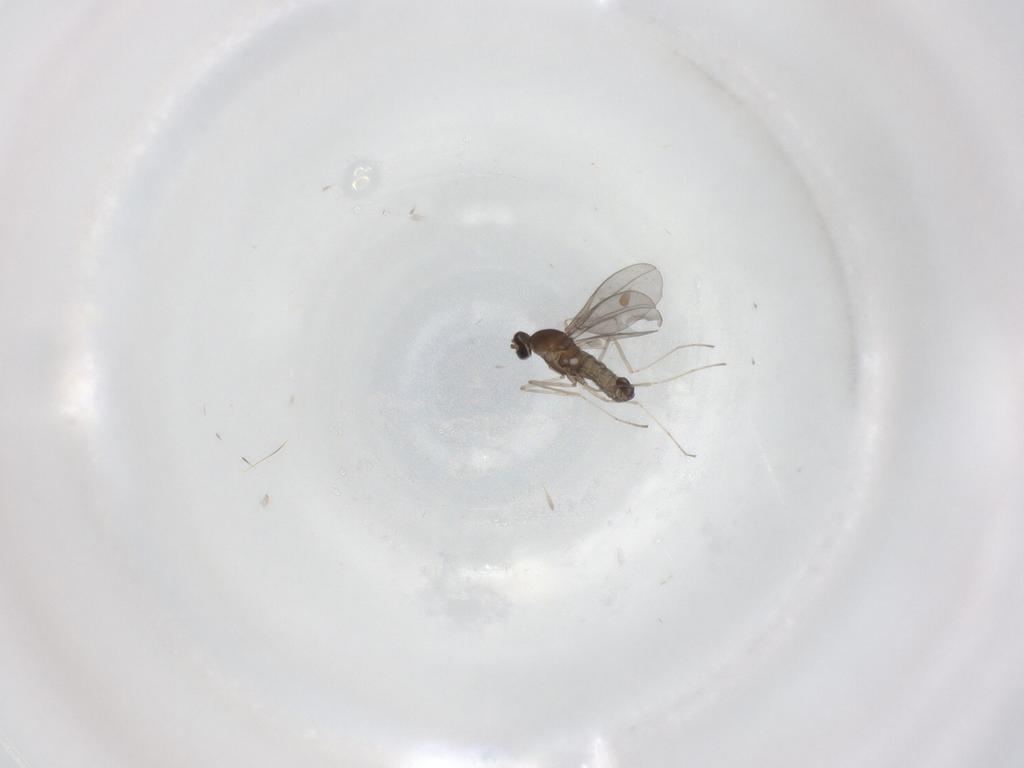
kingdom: Animalia
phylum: Arthropoda
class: Insecta
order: Diptera
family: Cecidomyiidae
